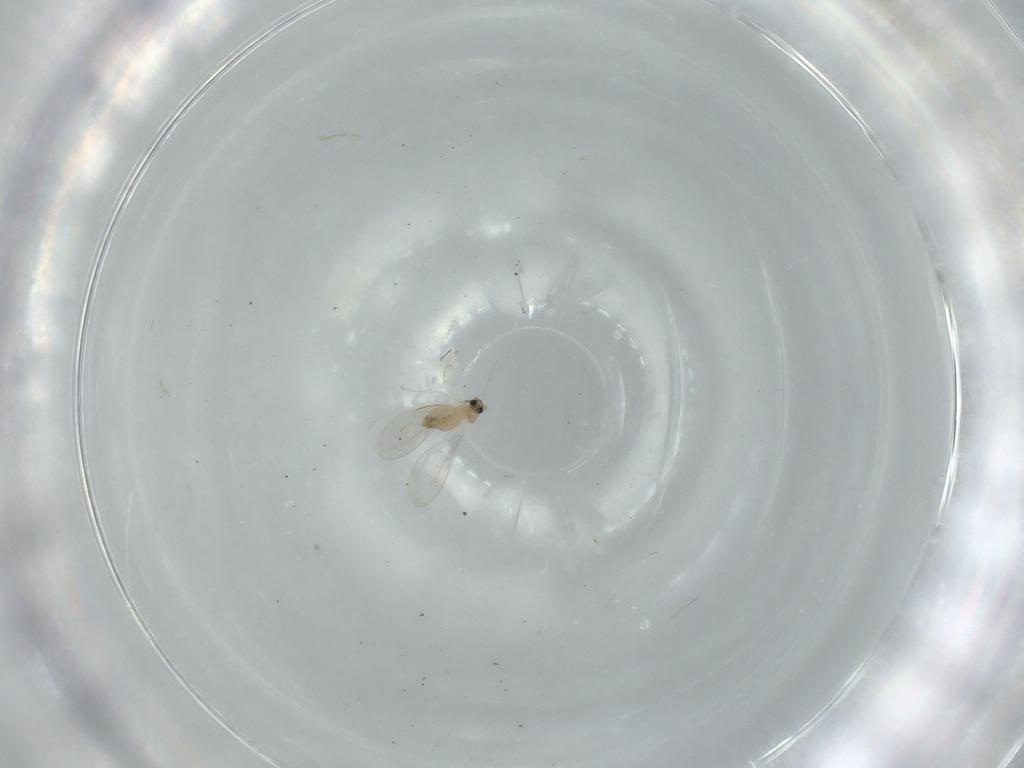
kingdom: Animalia
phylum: Arthropoda
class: Insecta
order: Diptera
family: Cecidomyiidae
